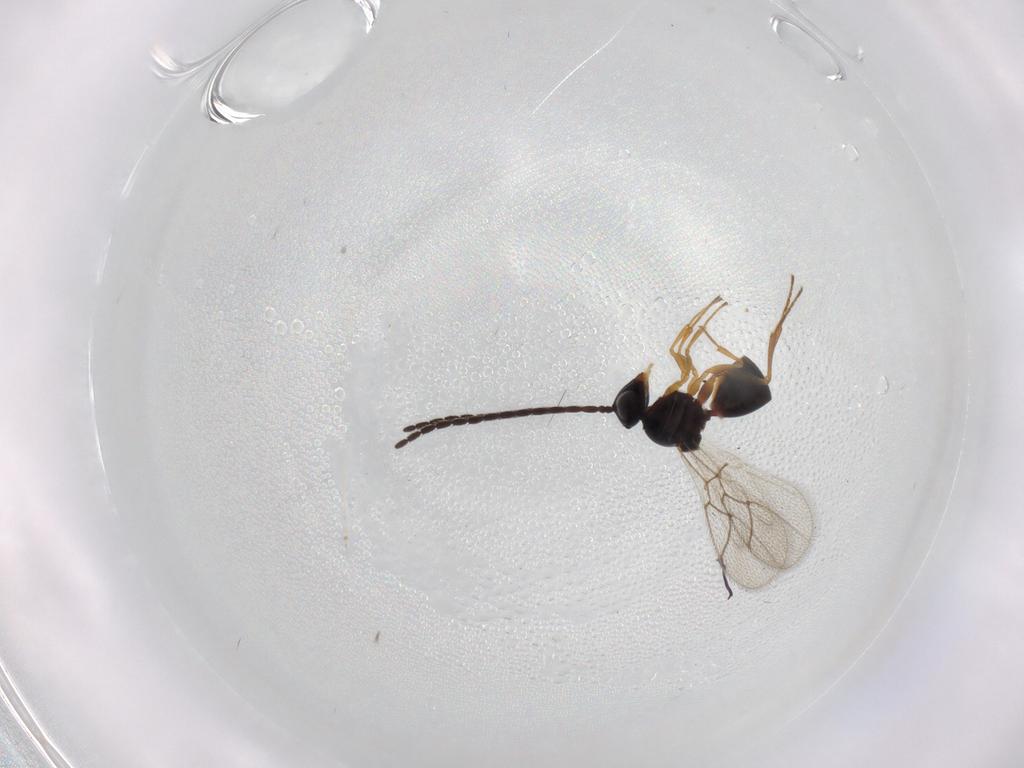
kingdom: Animalia
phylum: Arthropoda
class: Insecta
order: Hymenoptera
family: Figitidae
